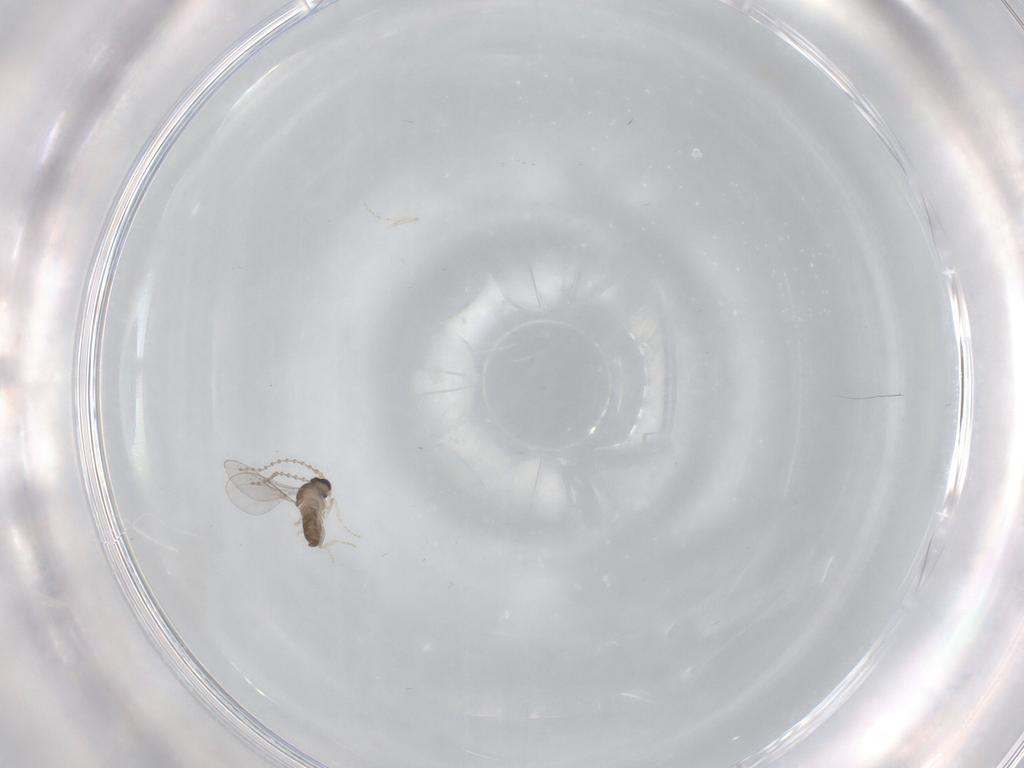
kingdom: Animalia
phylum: Arthropoda
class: Insecta
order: Diptera
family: Cecidomyiidae
